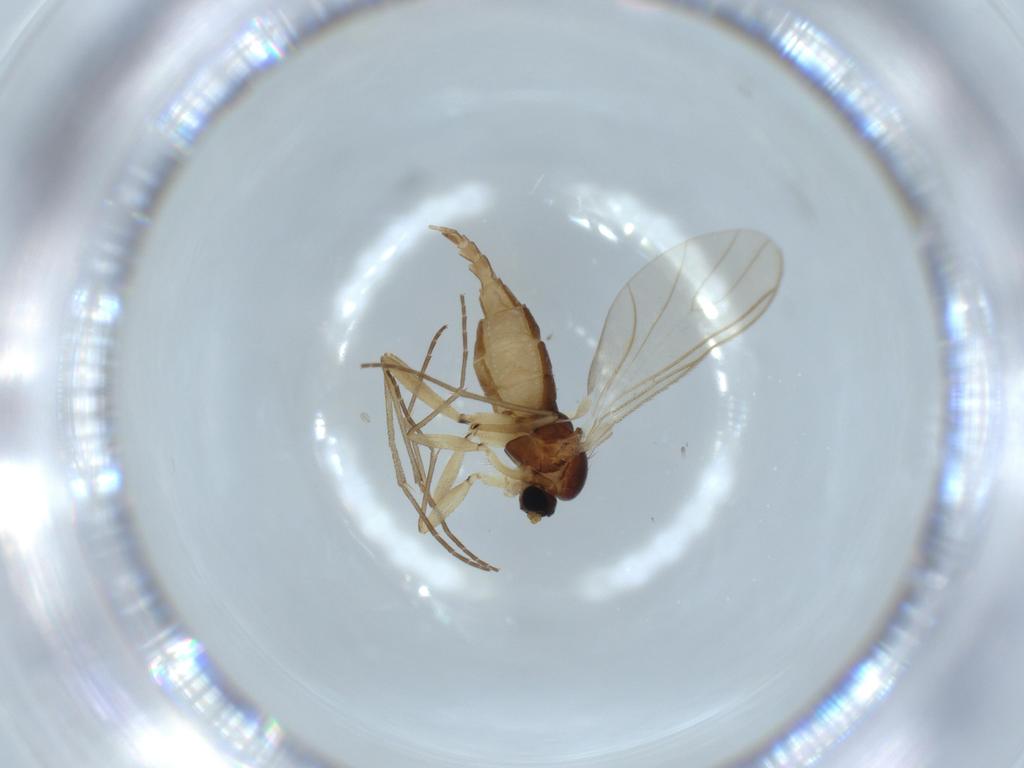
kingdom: Animalia
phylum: Arthropoda
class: Insecta
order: Diptera
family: Sciaridae
